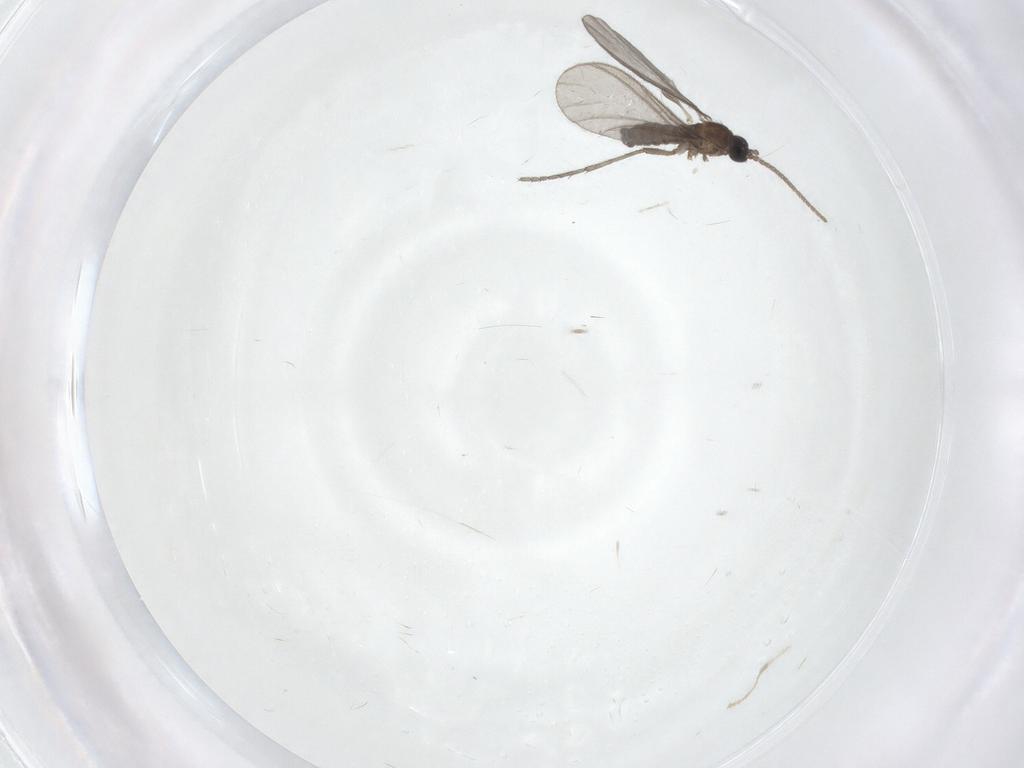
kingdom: Animalia
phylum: Arthropoda
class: Insecta
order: Diptera
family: Sciaridae
